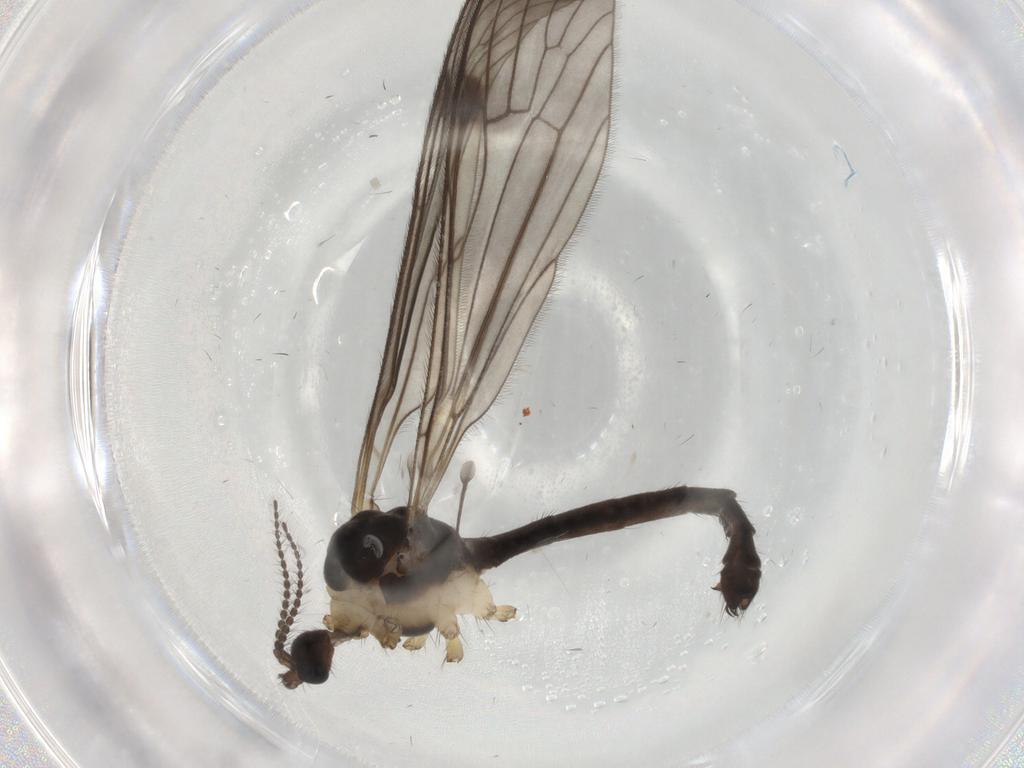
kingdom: Animalia
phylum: Arthropoda
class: Insecta
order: Diptera
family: Limoniidae
